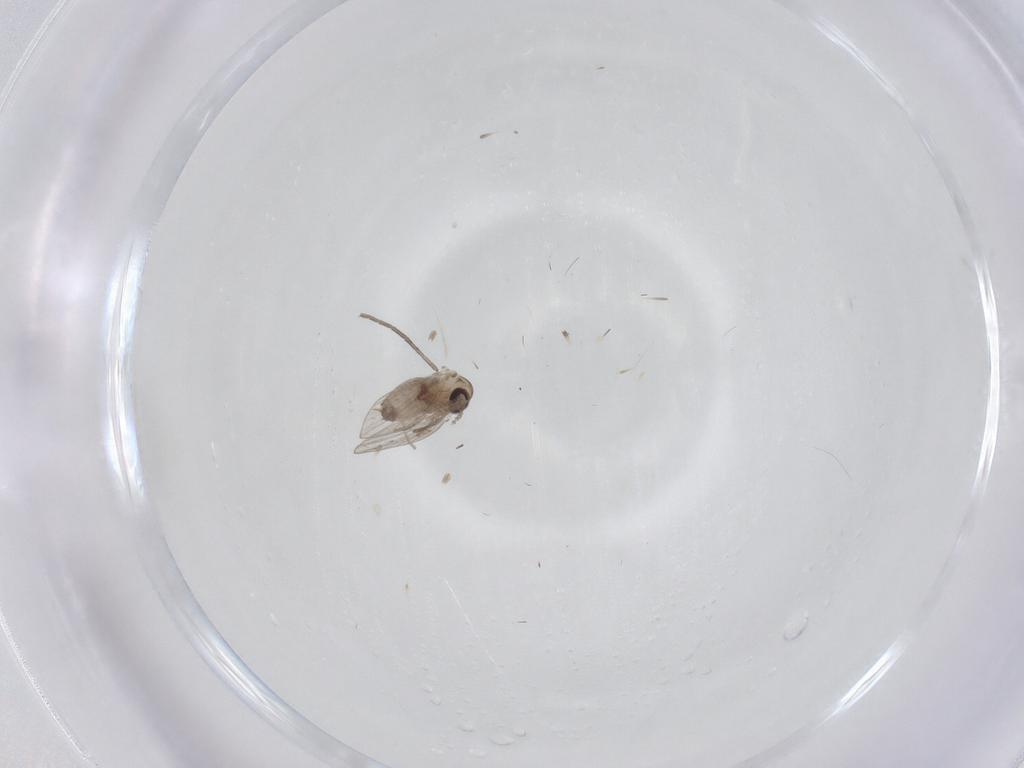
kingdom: Animalia
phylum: Arthropoda
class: Insecta
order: Diptera
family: Psychodidae
